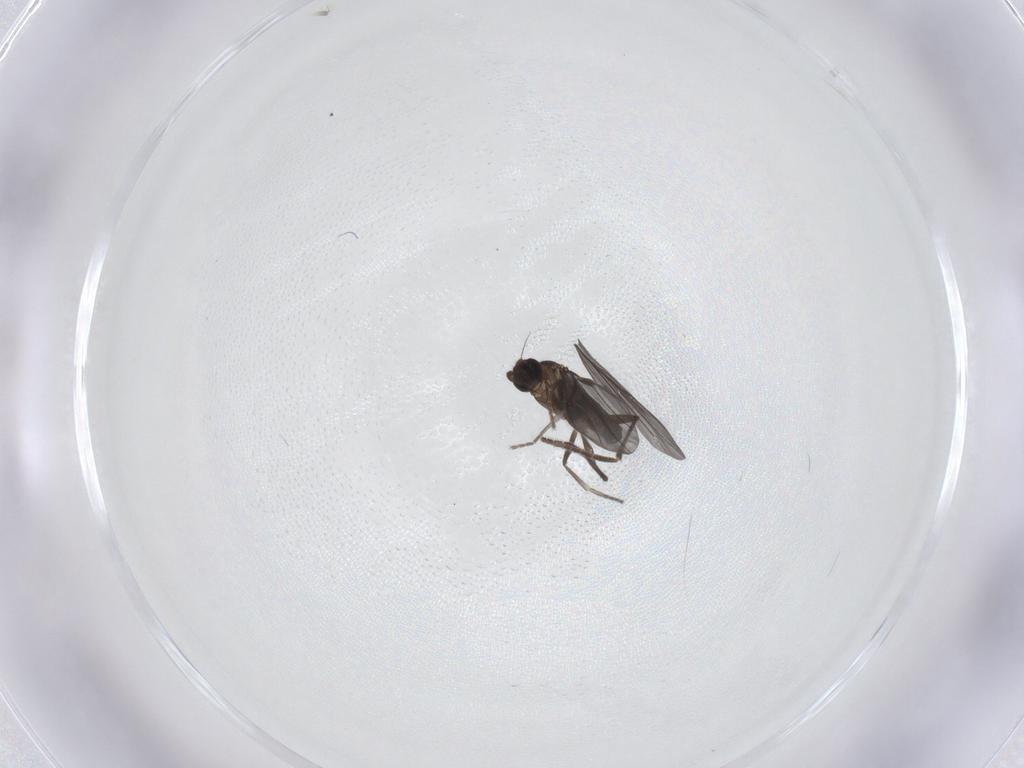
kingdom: Animalia
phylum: Arthropoda
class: Insecta
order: Diptera
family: Phoridae
